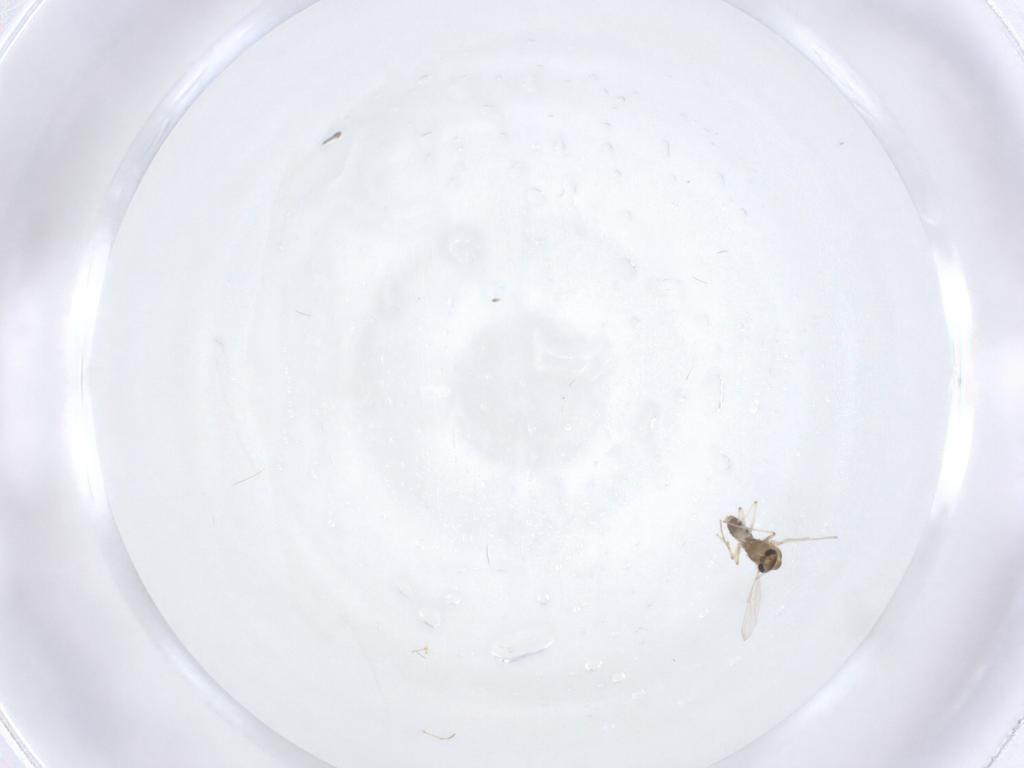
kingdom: Animalia
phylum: Arthropoda
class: Insecta
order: Diptera
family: Chironomidae
